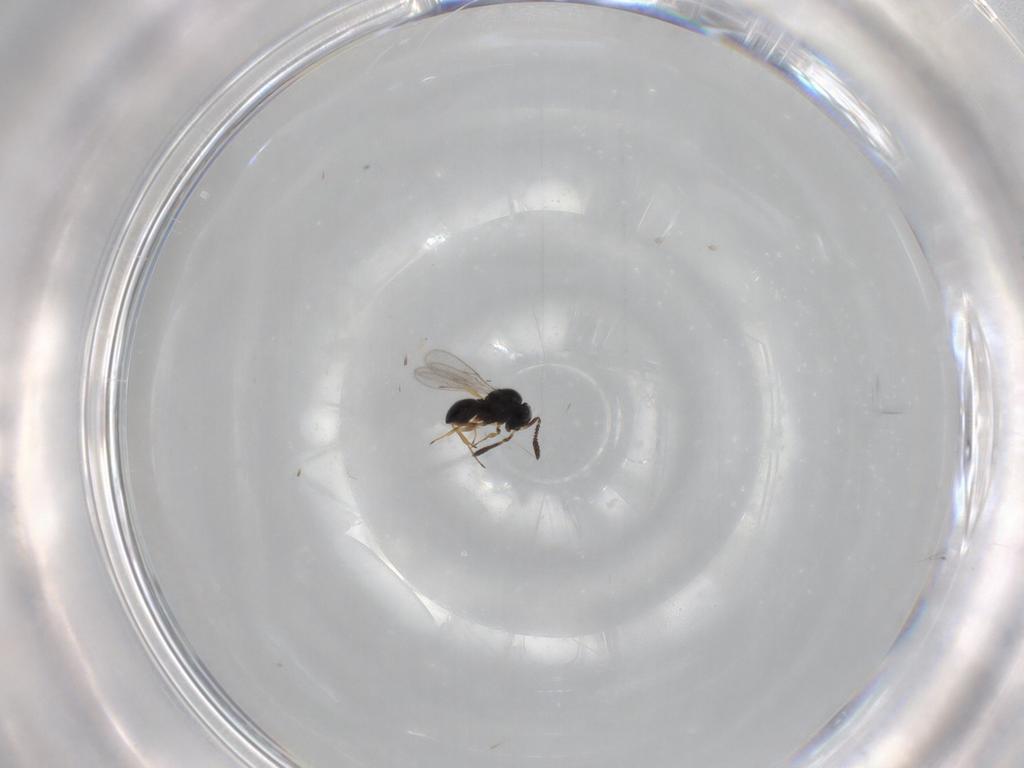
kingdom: Animalia
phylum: Arthropoda
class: Insecta
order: Hymenoptera
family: Scelionidae
